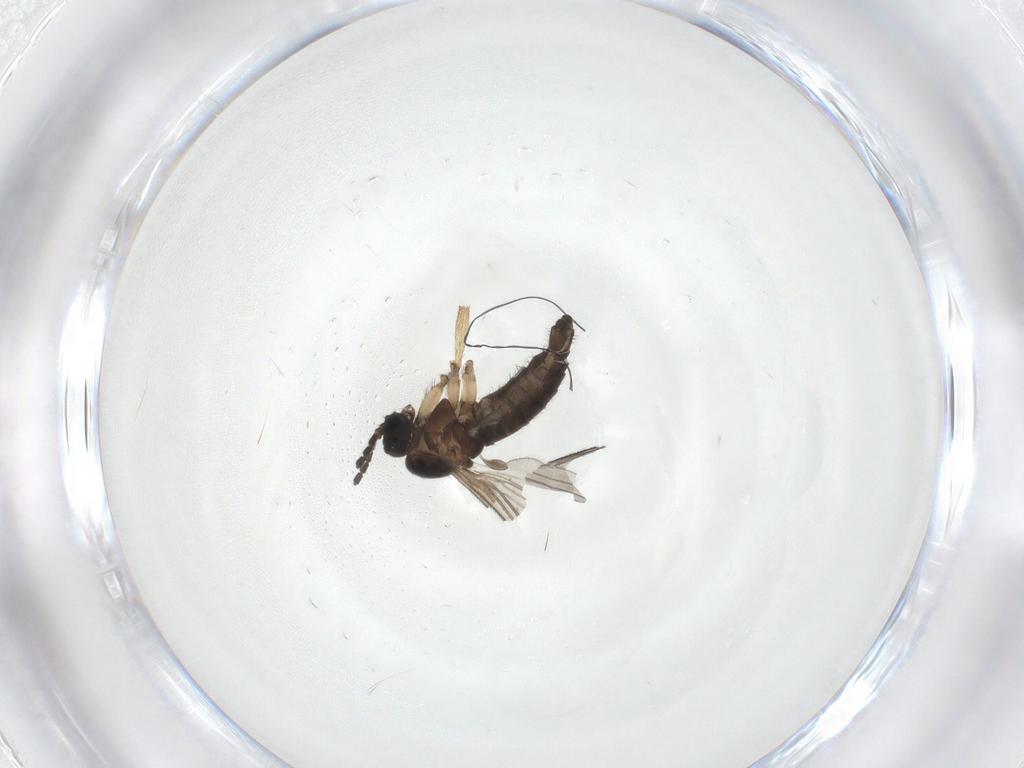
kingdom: Animalia
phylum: Arthropoda
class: Insecta
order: Diptera
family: Sciaridae
